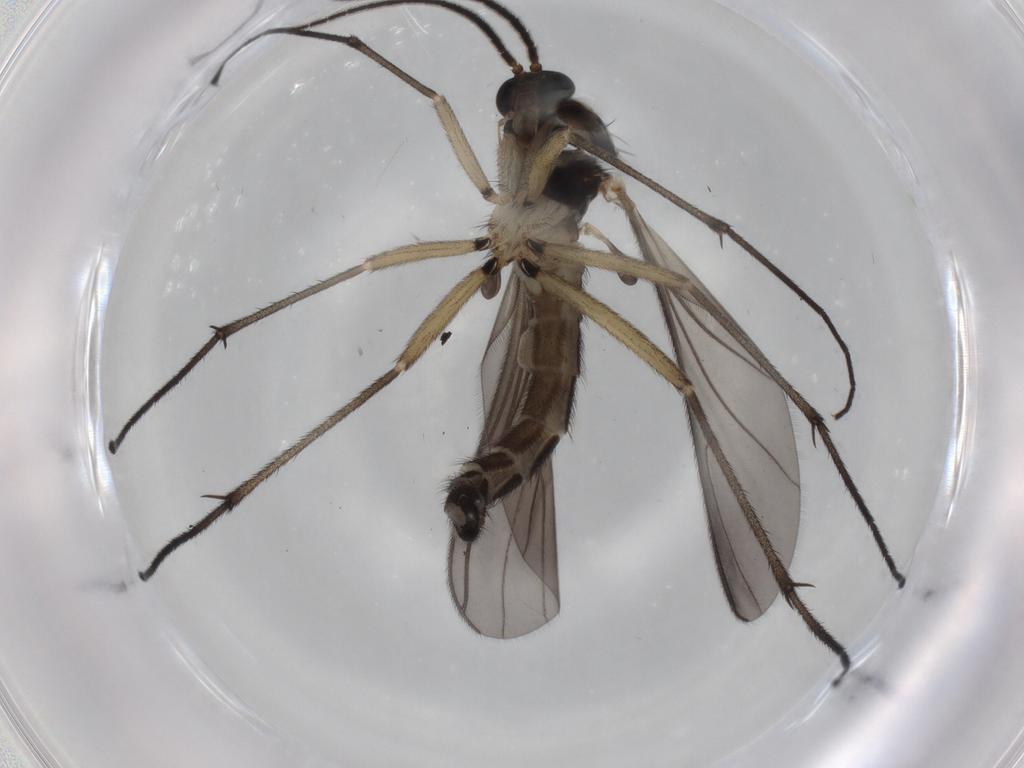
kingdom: Animalia
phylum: Arthropoda
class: Insecta
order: Diptera
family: Sciaridae
